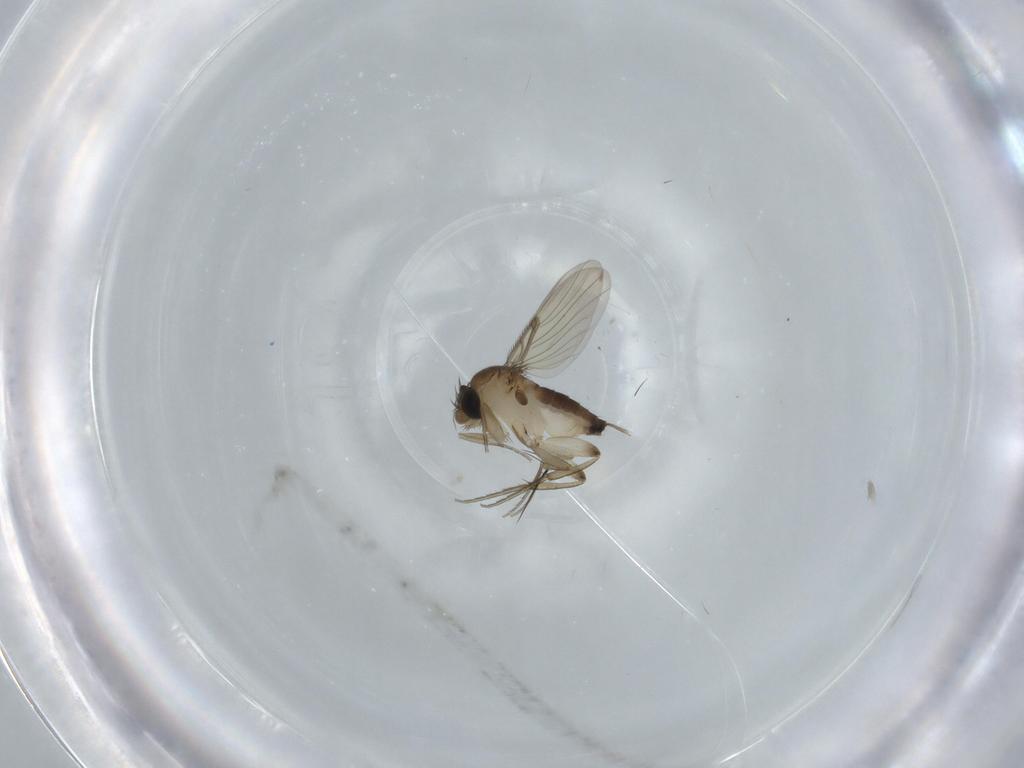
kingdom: Animalia
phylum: Arthropoda
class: Insecta
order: Diptera
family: Phoridae
